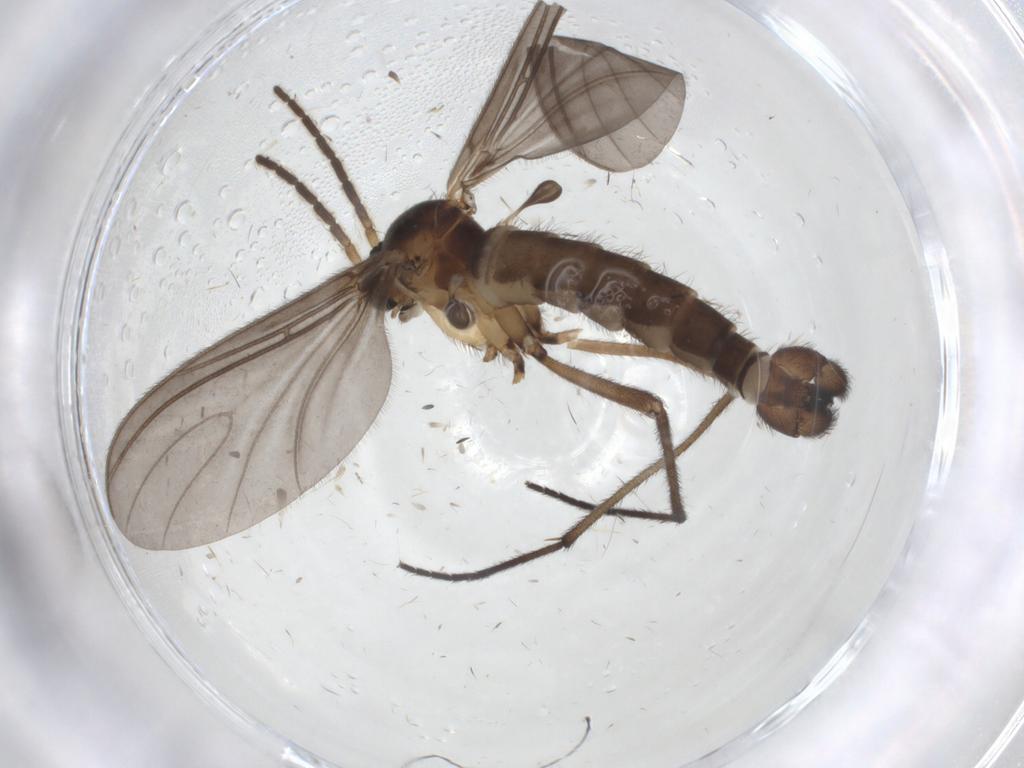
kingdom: Animalia
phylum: Arthropoda
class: Insecta
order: Diptera
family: Sciaridae
